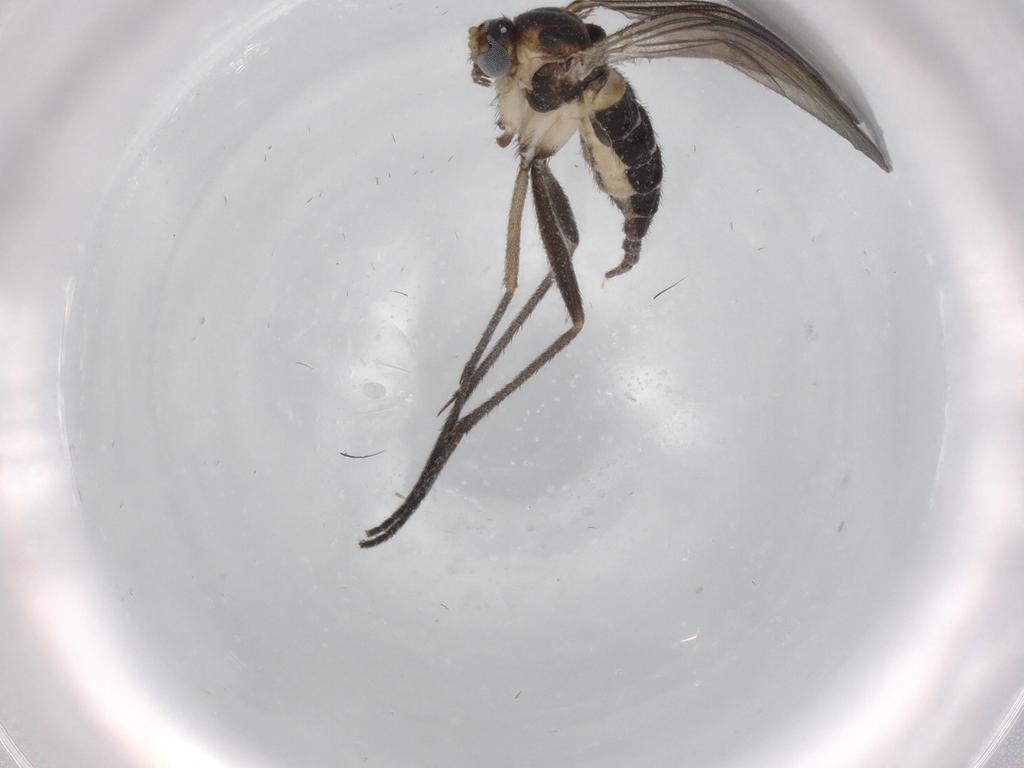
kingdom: Animalia
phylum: Arthropoda
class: Insecta
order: Diptera
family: Sciaridae
